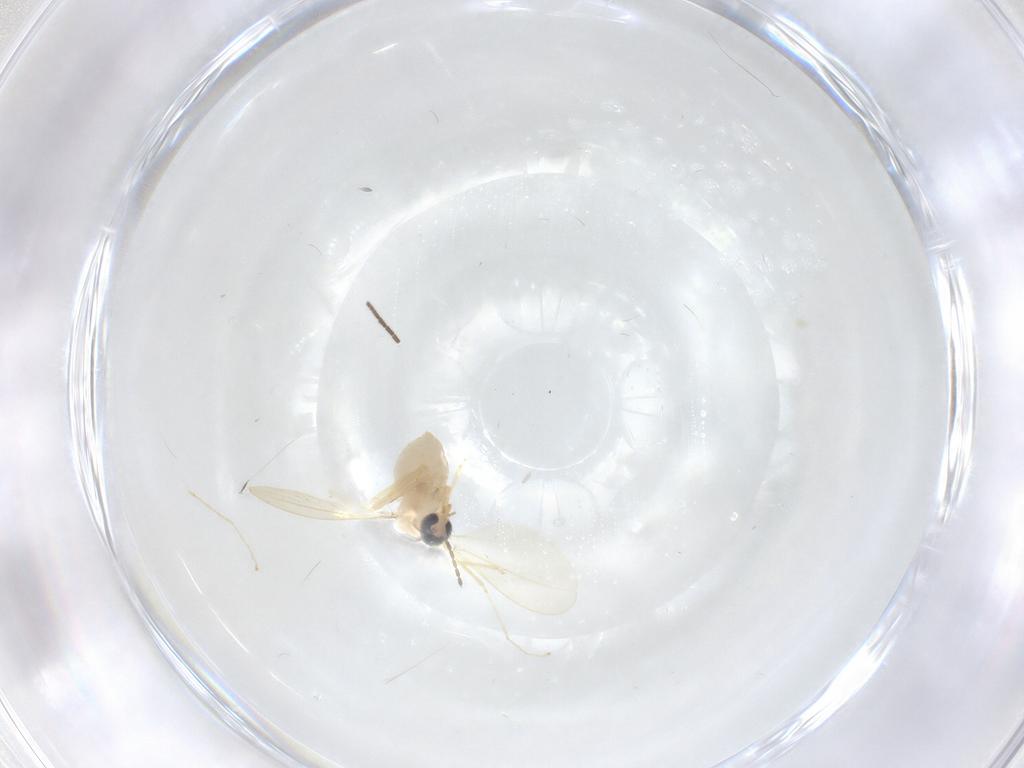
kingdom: Animalia
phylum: Arthropoda
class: Insecta
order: Diptera
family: Cecidomyiidae
